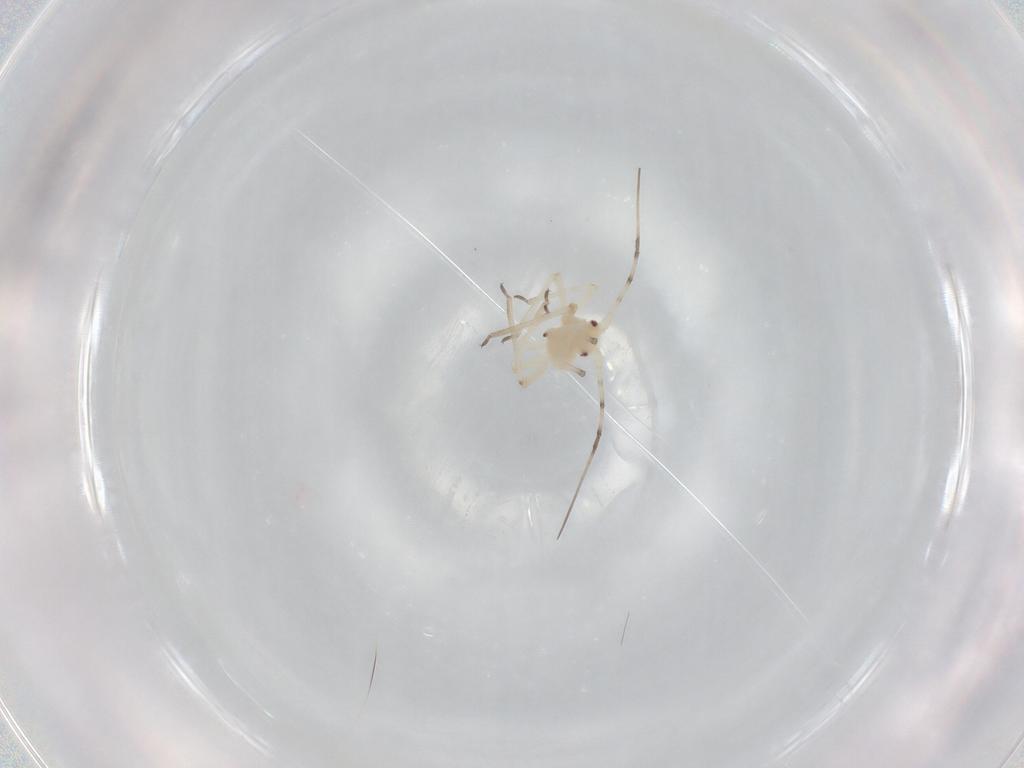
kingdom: Animalia
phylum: Arthropoda
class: Insecta
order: Hemiptera
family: Aphididae
